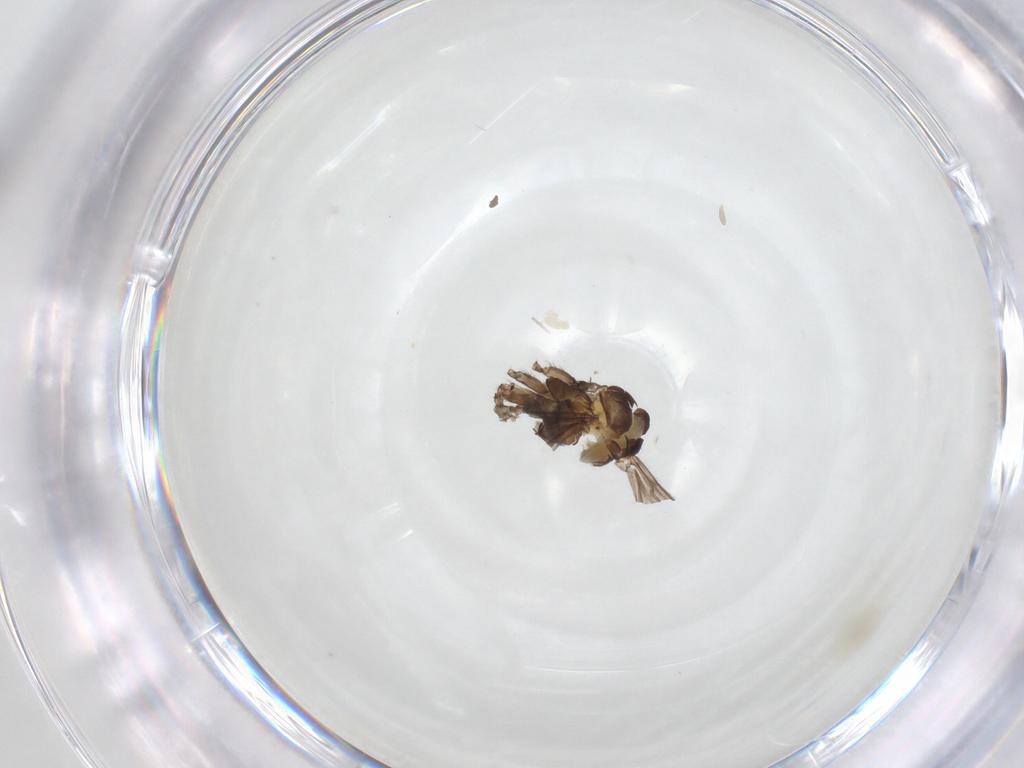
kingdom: Animalia
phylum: Arthropoda
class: Insecta
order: Diptera
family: Sciaridae
